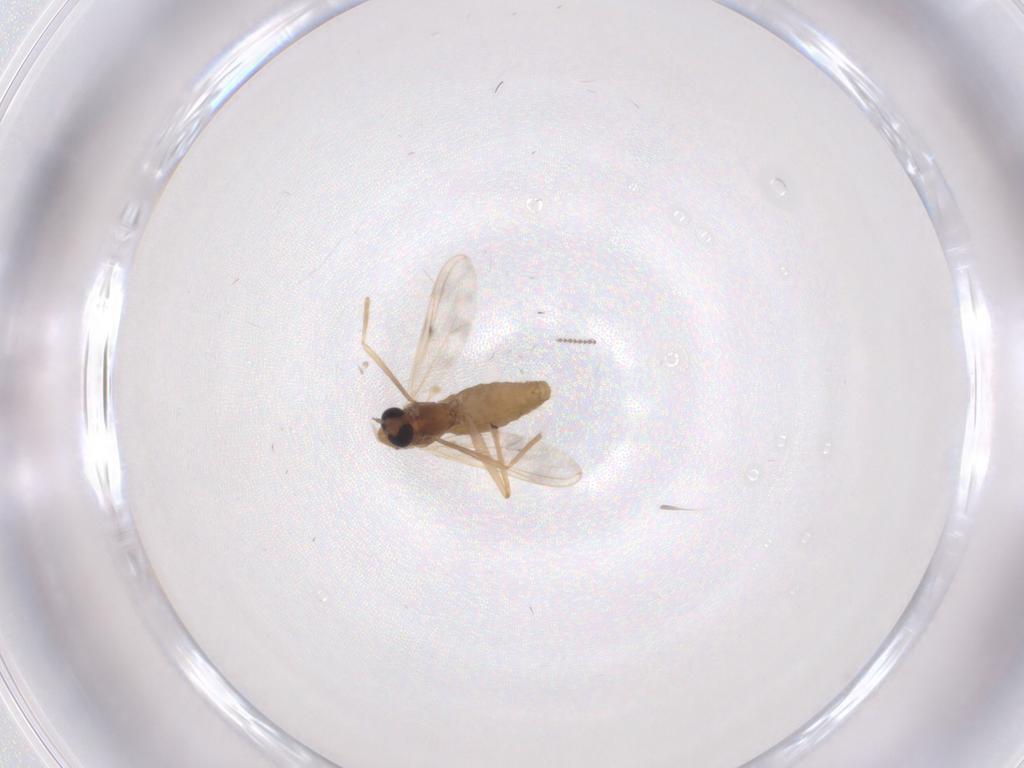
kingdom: Animalia
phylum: Arthropoda
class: Insecta
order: Diptera
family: Chironomidae
